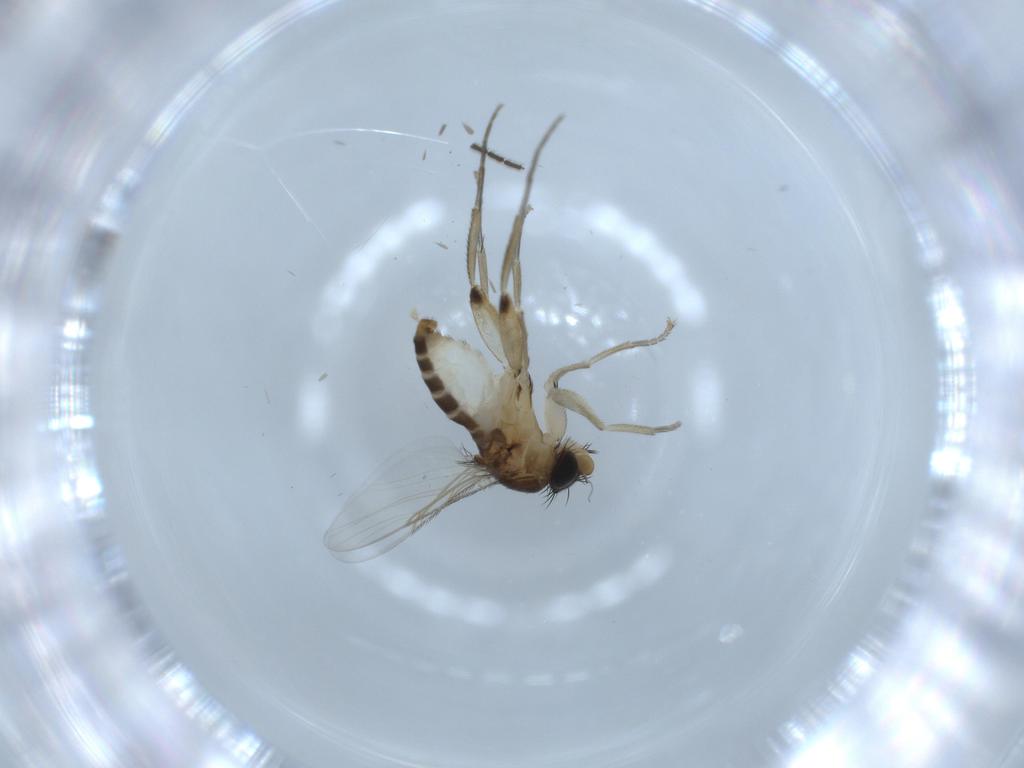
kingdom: Animalia
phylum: Arthropoda
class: Insecta
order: Diptera
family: Phoridae
